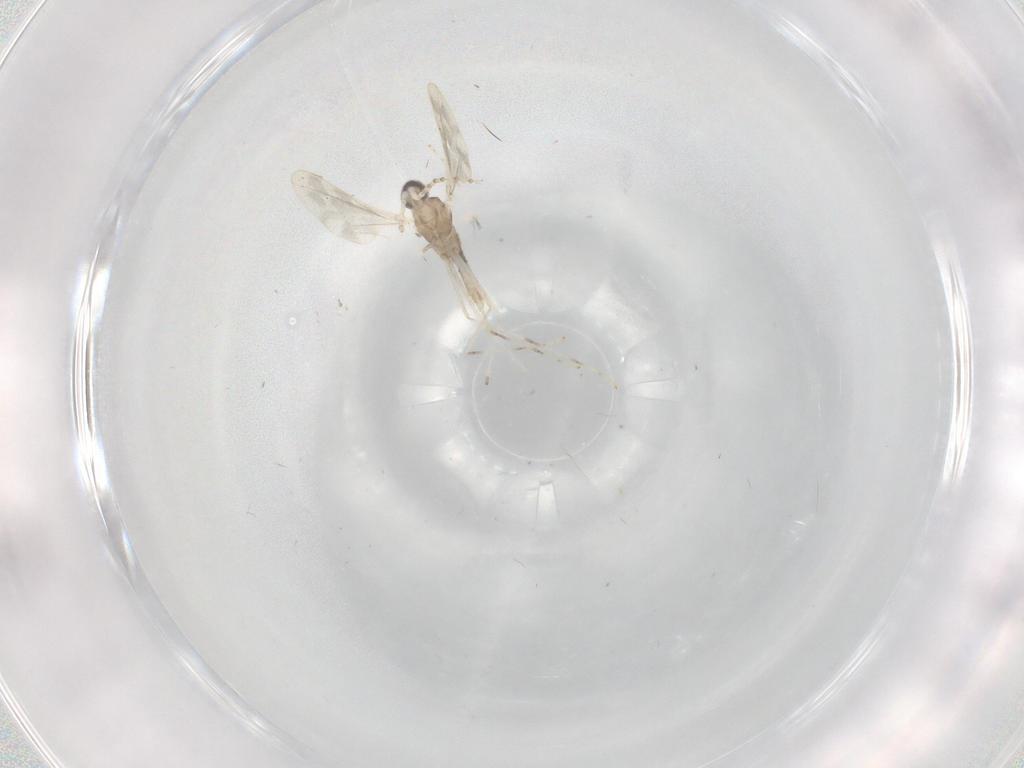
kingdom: Animalia
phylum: Arthropoda
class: Insecta
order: Diptera
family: Cecidomyiidae
